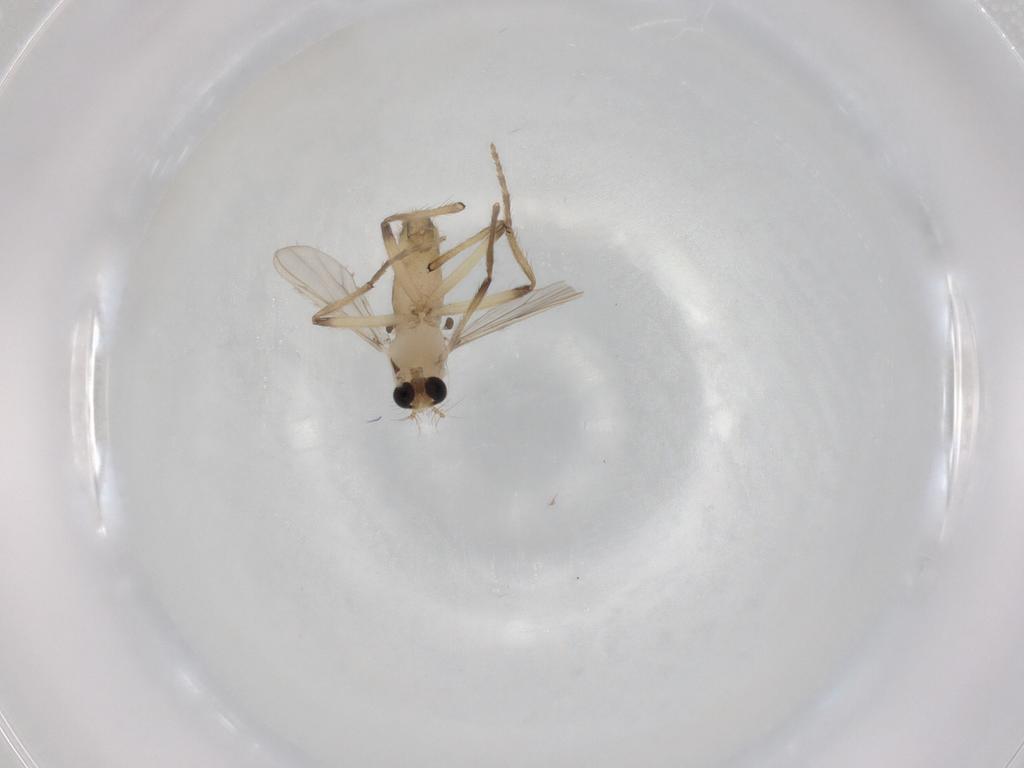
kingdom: Animalia
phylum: Arthropoda
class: Insecta
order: Diptera
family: Chironomidae
